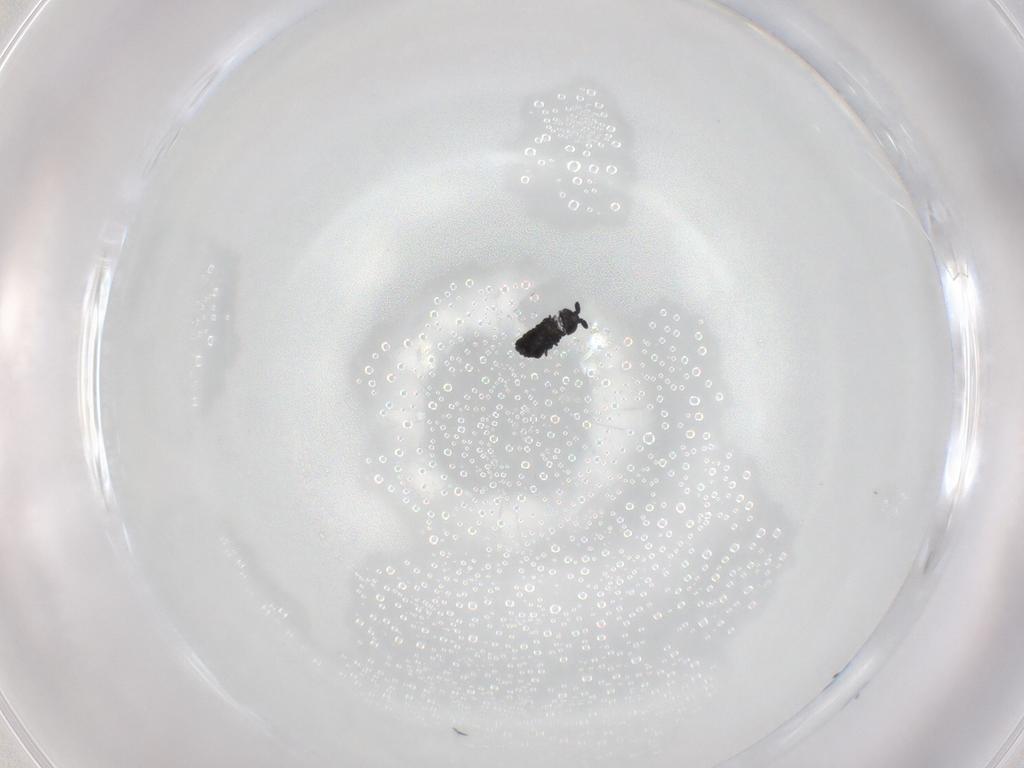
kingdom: Animalia
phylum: Arthropoda
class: Collembola
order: Poduromorpha
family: Hypogastruridae
